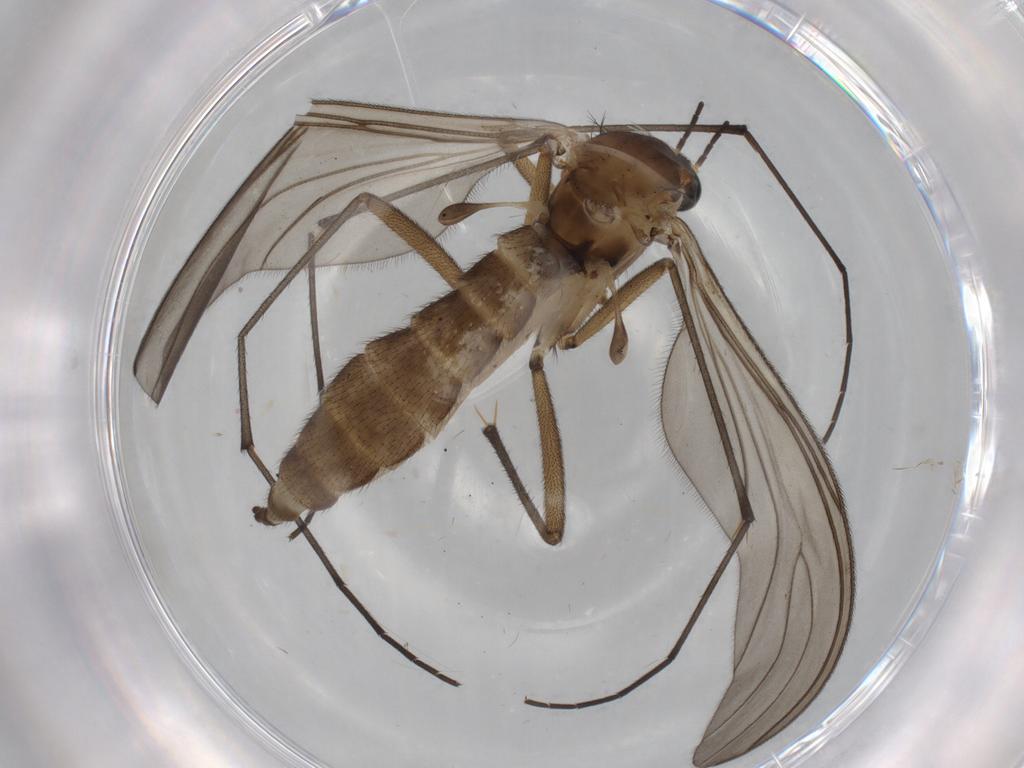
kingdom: Animalia
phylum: Arthropoda
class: Insecta
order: Diptera
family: Sciaridae
